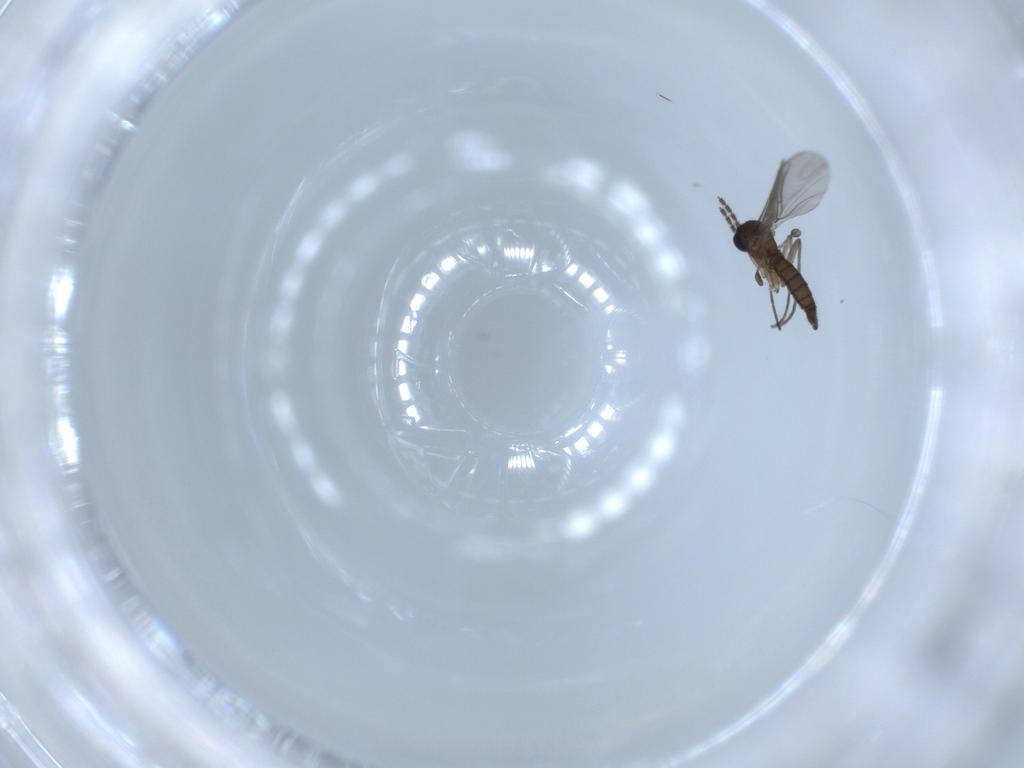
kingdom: Animalia
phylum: Arthropoda
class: Insecta
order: Diptera
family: Sciaridae
